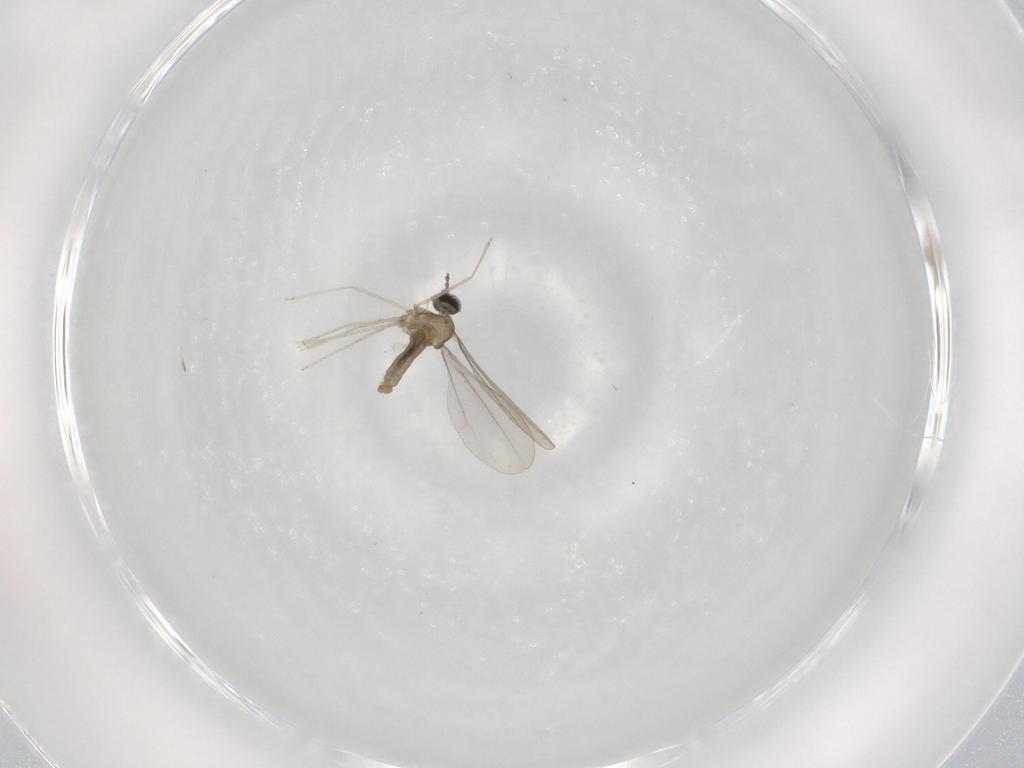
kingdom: Animalia
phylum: Arthropoda
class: Insecta
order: Diptera
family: Cecidomyiidae
